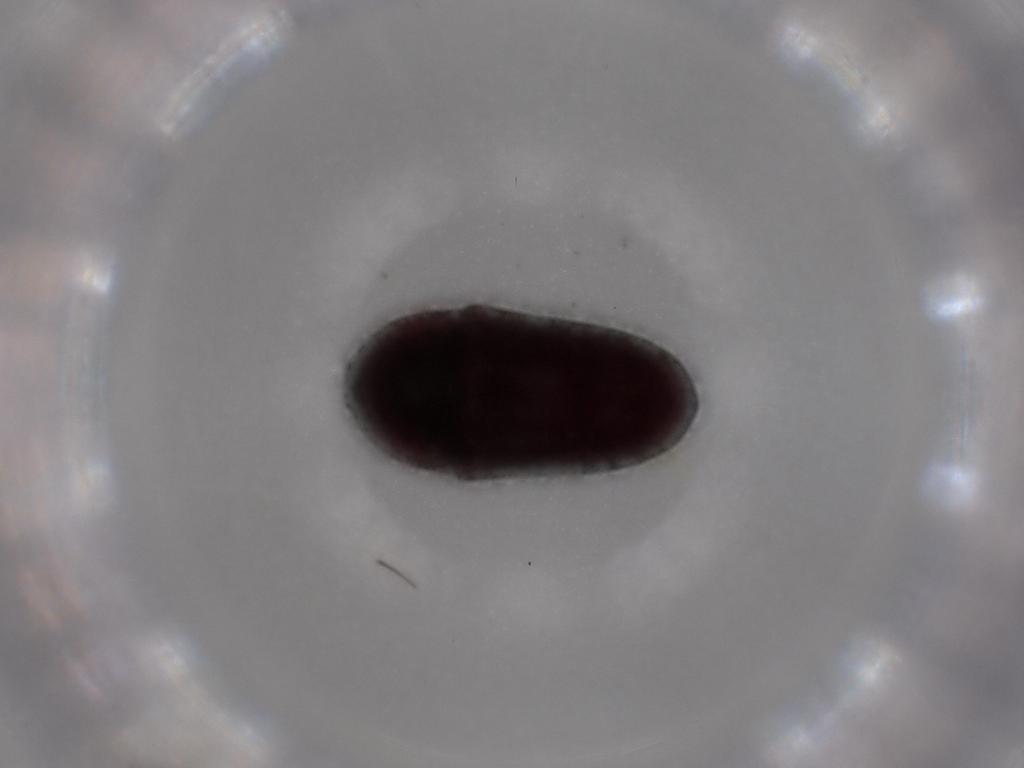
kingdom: Animalia
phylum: Arthropoda
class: Insecta
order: Coleoptera
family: Throscidae
